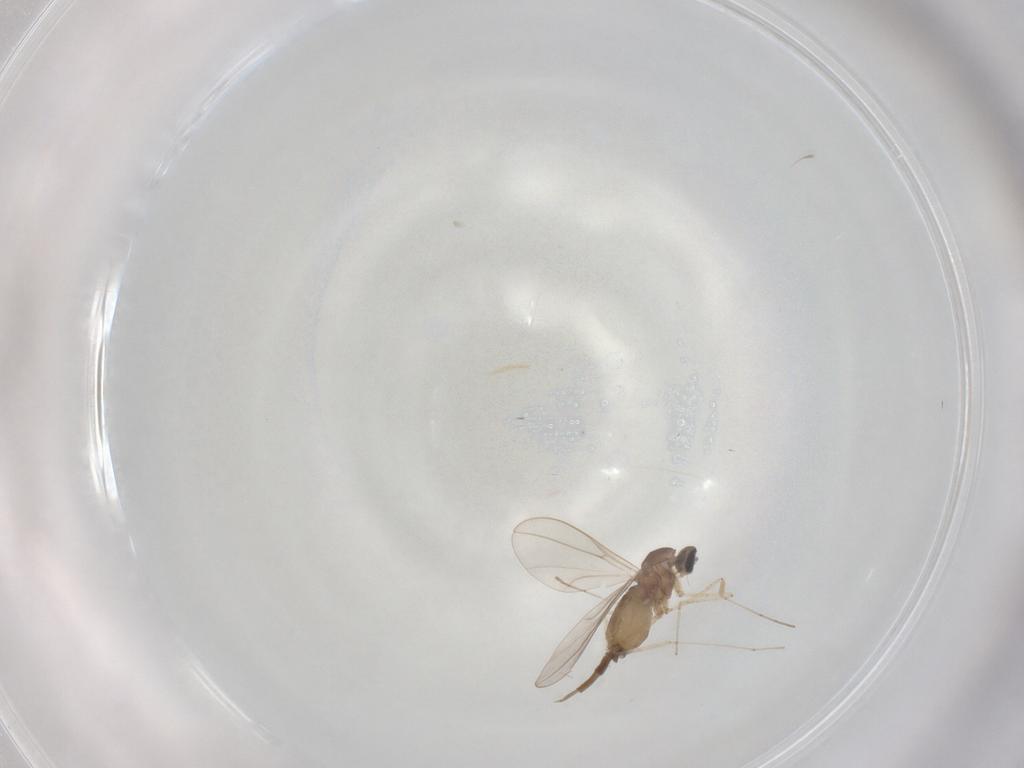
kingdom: Animalia
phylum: Arthropoda
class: Insecta
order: Diptera
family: Cecidomyiidae
